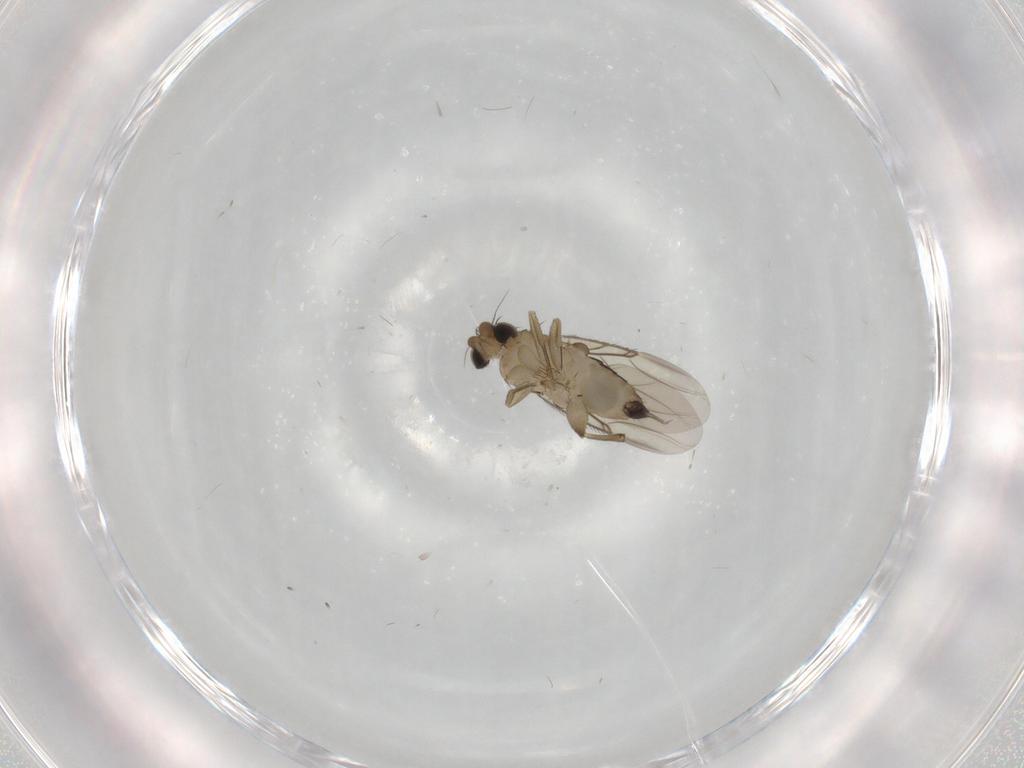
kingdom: Animalia
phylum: Arthropoda
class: Insecta
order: Diptera
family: Phoridae
